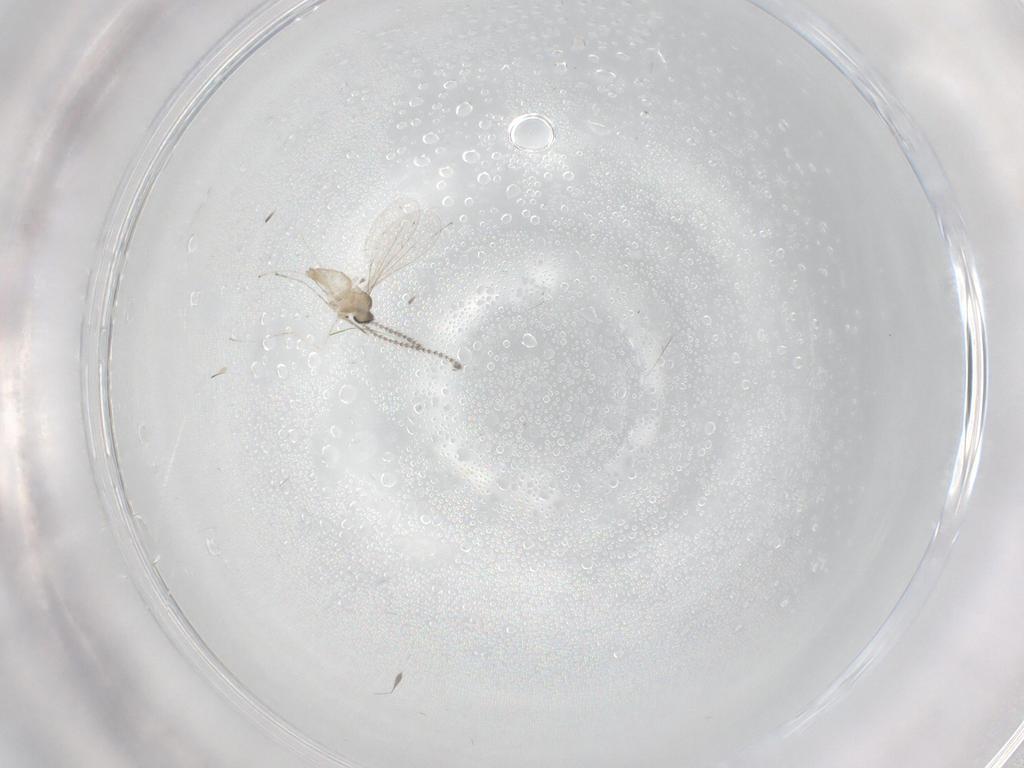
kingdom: Animalia
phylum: Arthropoda
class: Insecta
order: Diptera
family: Cecidomyiidae
